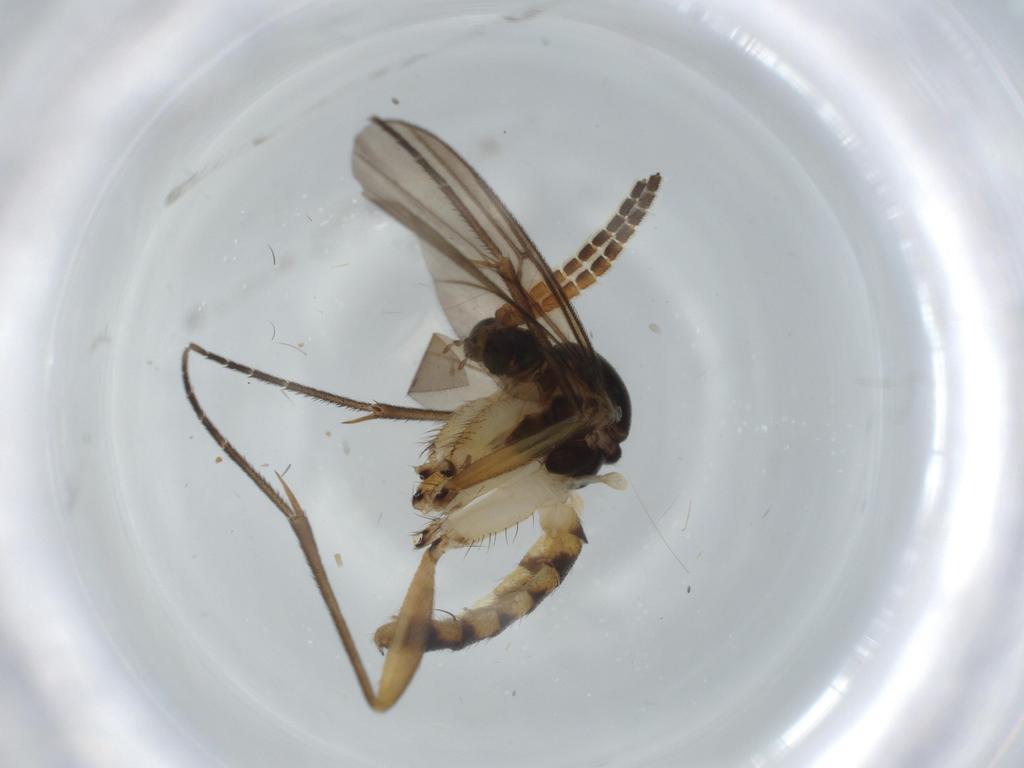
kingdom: Animalia
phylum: Arthropoda
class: Insecta
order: Diptera
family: Cecidomyiidae
